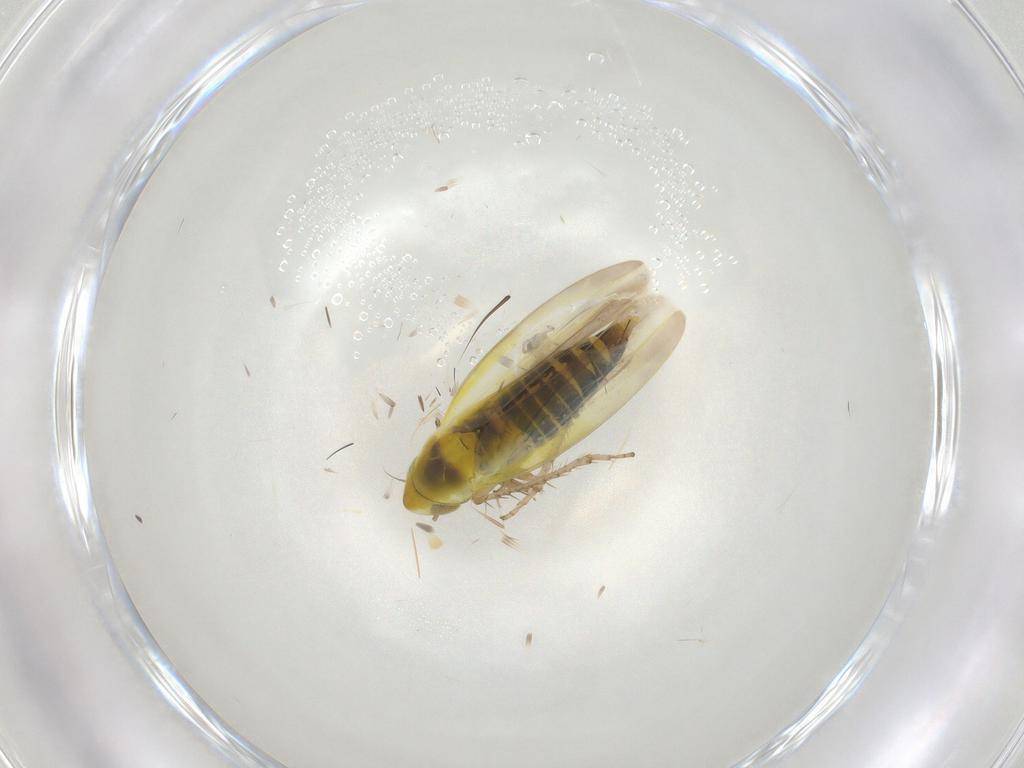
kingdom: Animalia
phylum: Arthropoda
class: Insecta
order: Hemiptera
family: Cicadellidae
